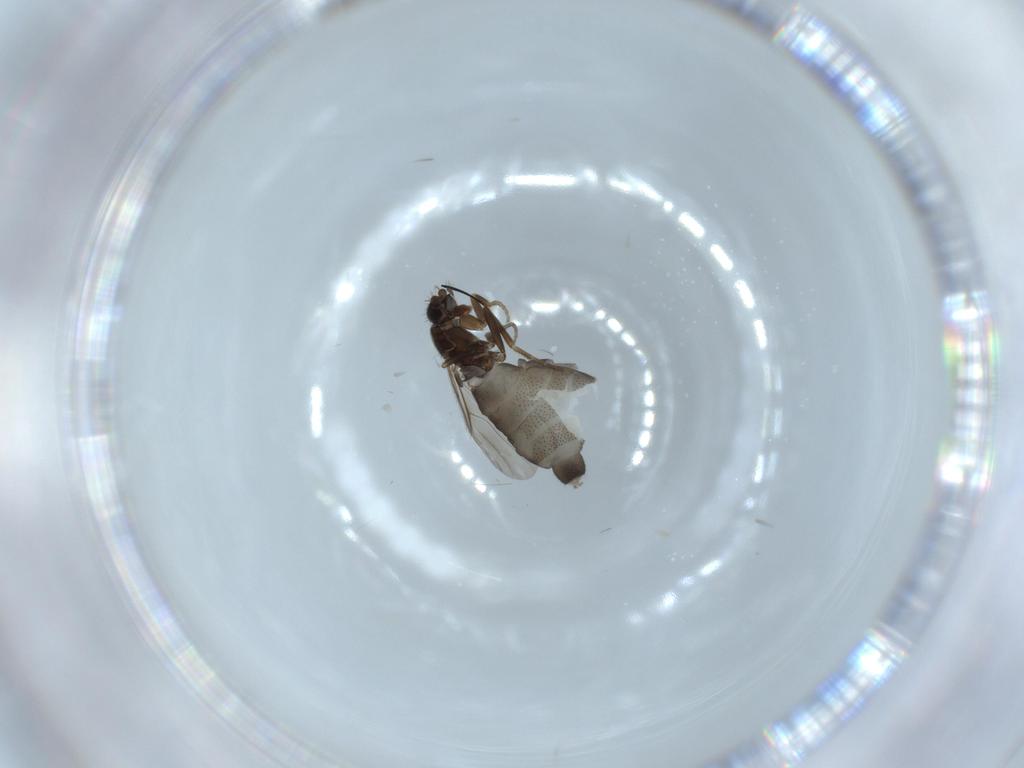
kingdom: Animalia
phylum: Arthropoda
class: Insecta
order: Diptera
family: Phoridae
